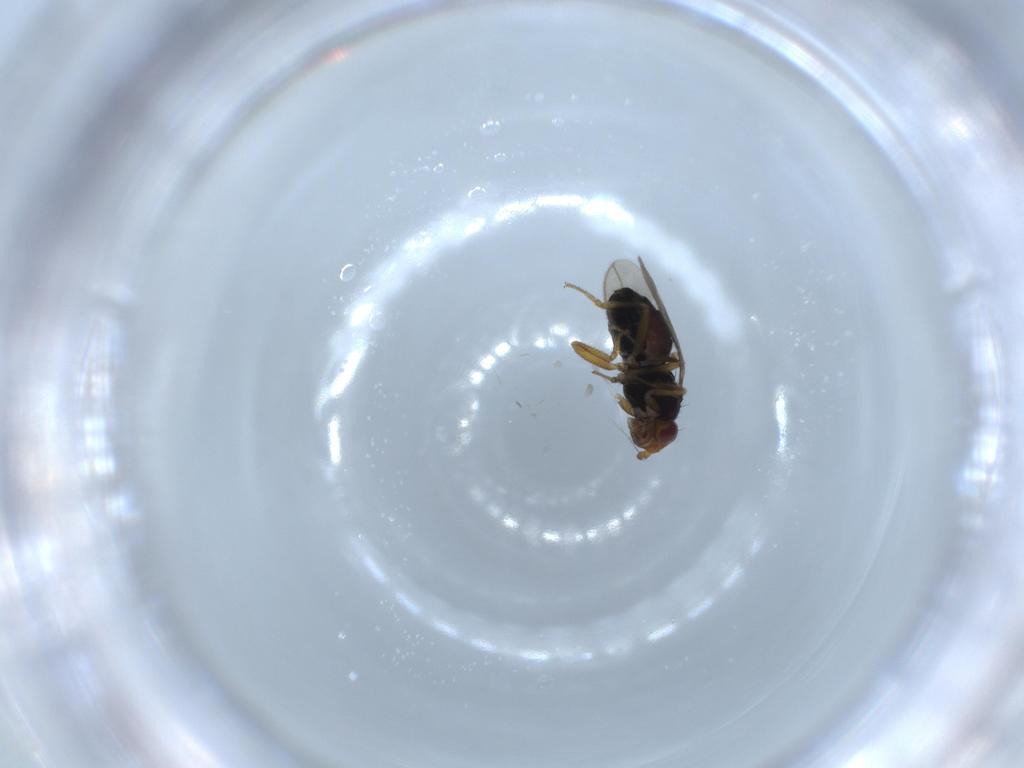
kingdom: Animalia
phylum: Arthropoda
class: Insecta
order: Diptera
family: Sphaeroceridae
